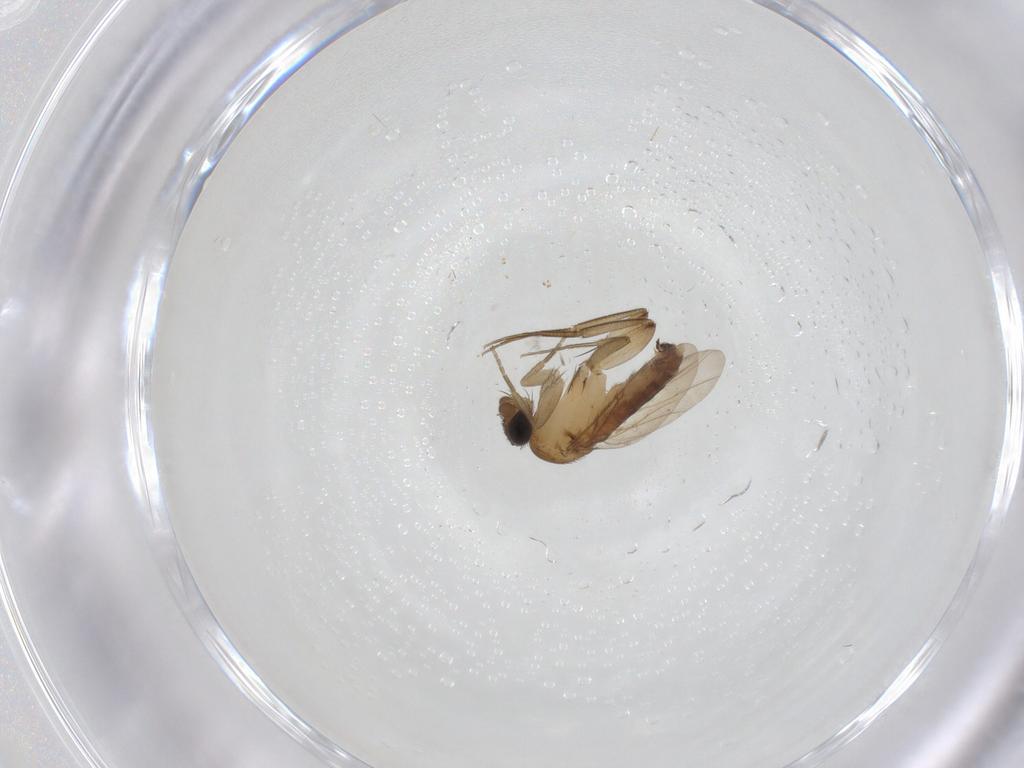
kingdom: Animalia
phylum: Arthropoda
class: Insecta
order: Diptera
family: Phoridae
